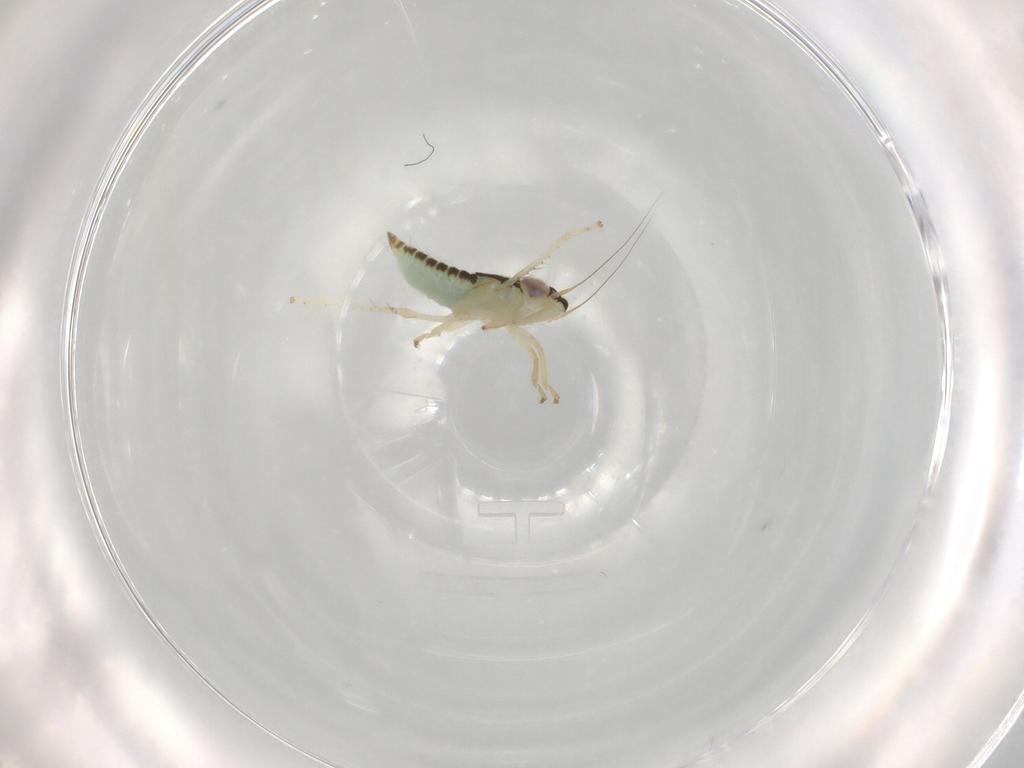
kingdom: Animalia
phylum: Arthropoda
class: Insecta
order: Hemiptera
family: Cicadellidae
